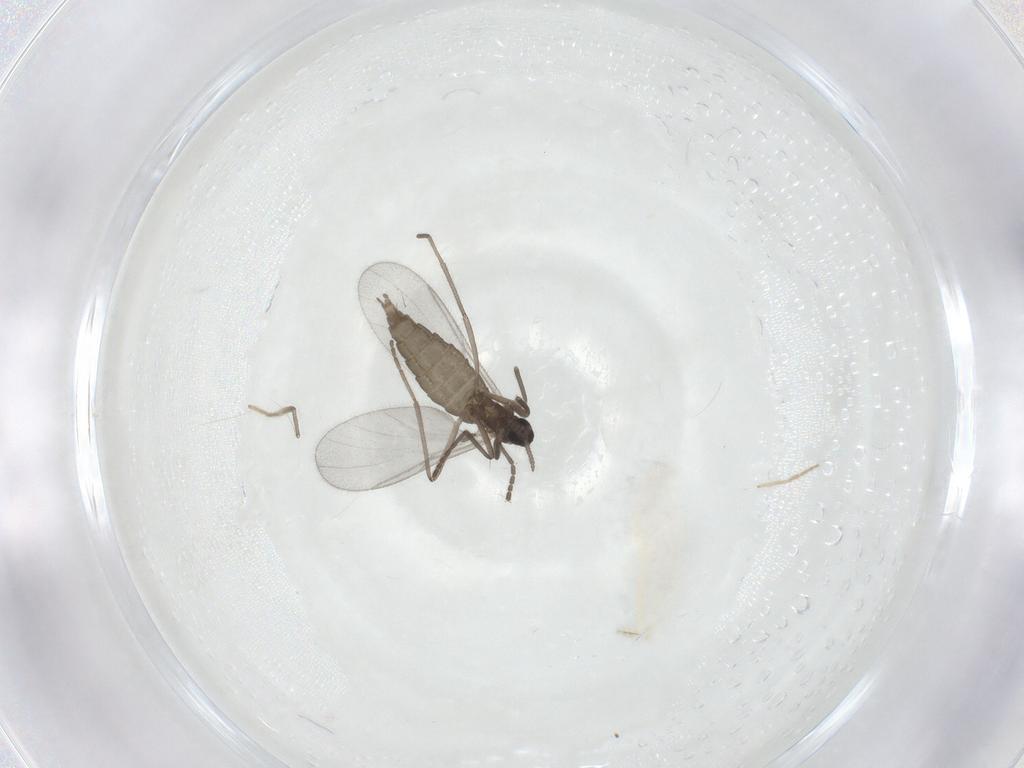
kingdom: Animalia
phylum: Arthropoda
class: Insecta
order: Diptera
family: Cecidomyiidae
